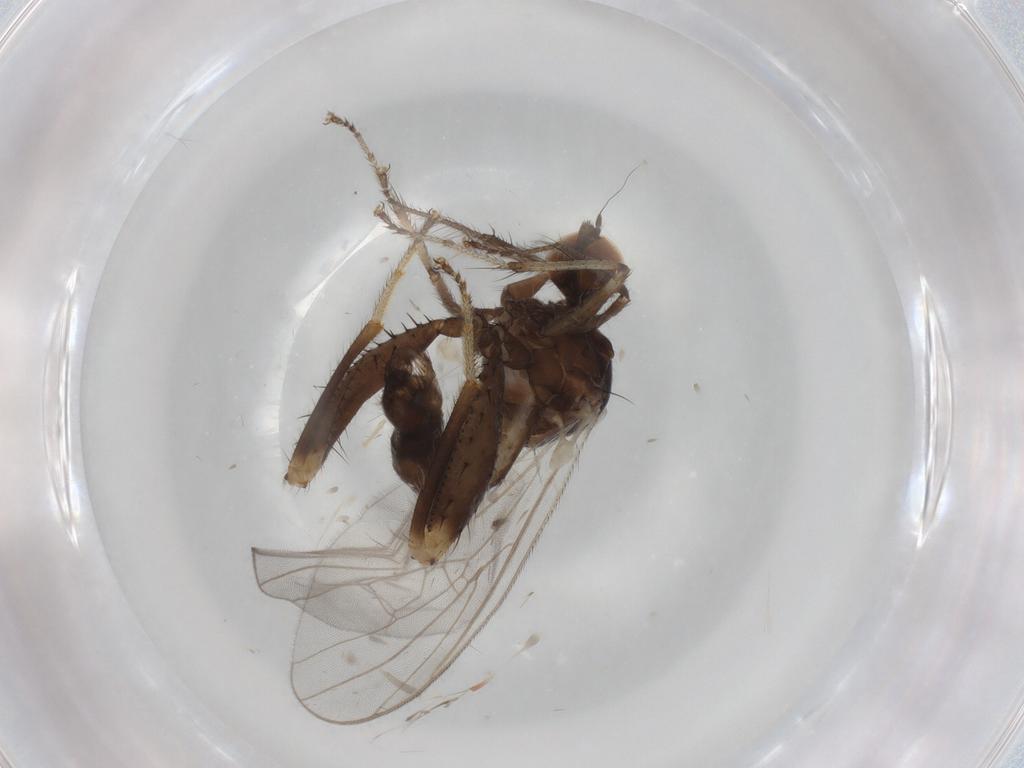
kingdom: Animalia
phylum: Arthropoda
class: Insecta
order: Diptera
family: Hybotidae
